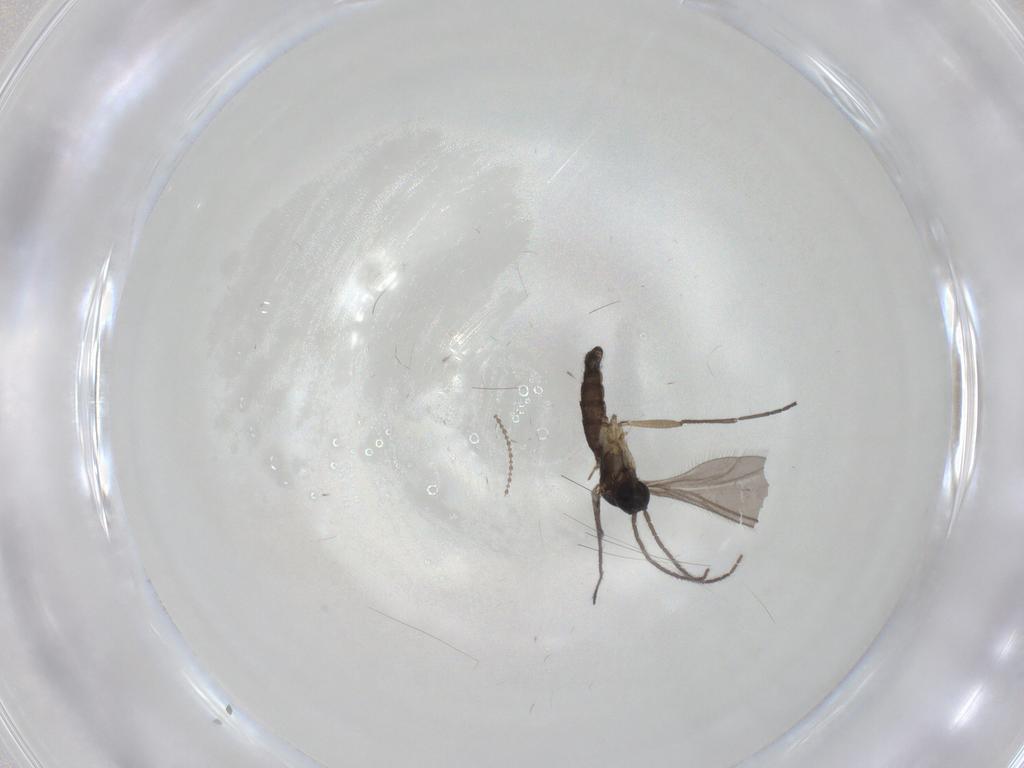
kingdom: Animalia
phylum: Arthropoda
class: Insecta
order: Diptera
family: Sciaridae
